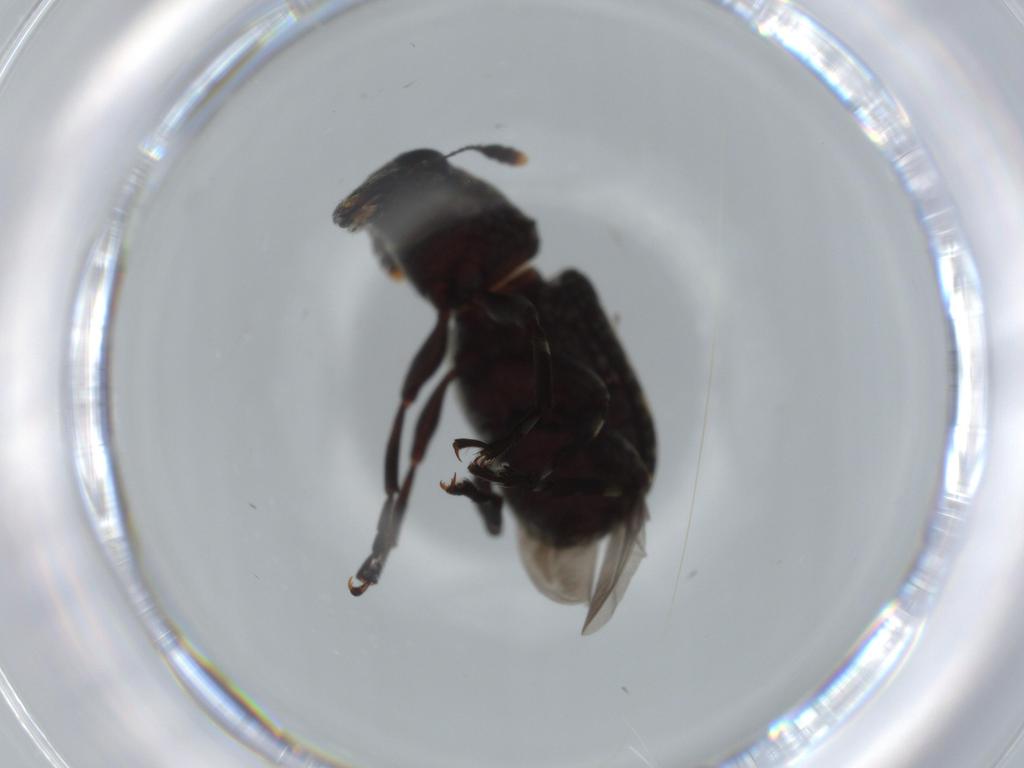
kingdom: Animalia
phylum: Arthropoda
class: Insecta
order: Coleoptera
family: Anthribidae
